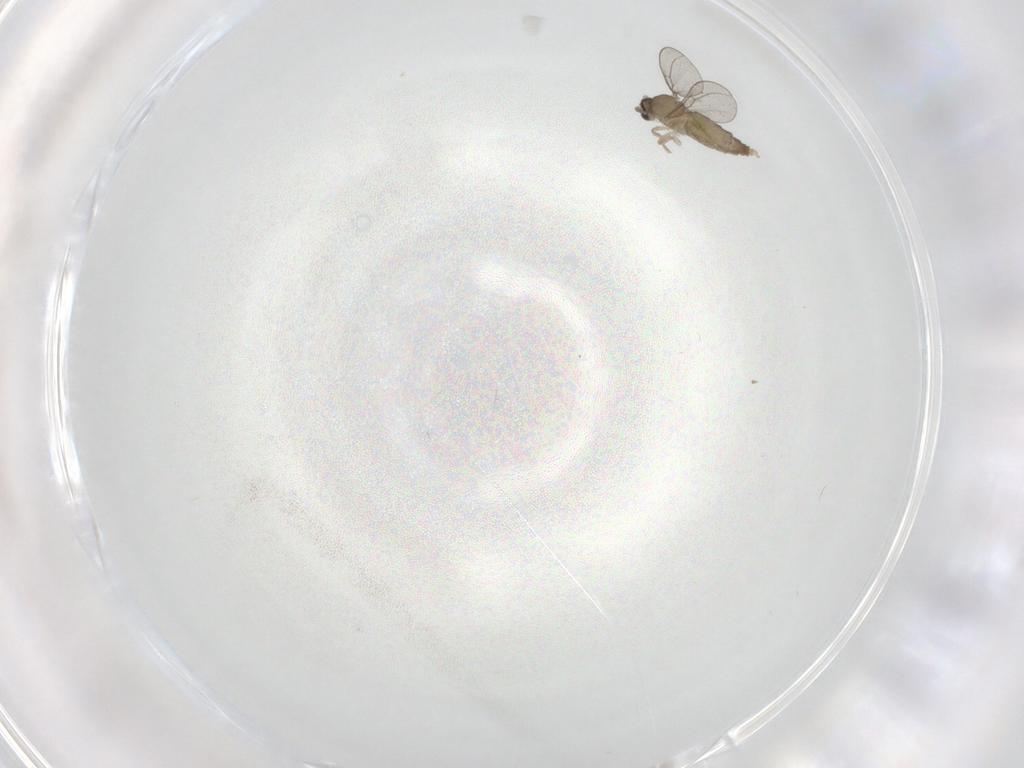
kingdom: Animalia
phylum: Arthropoda
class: Insecta
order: Diptera
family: Cecidomyiidae
